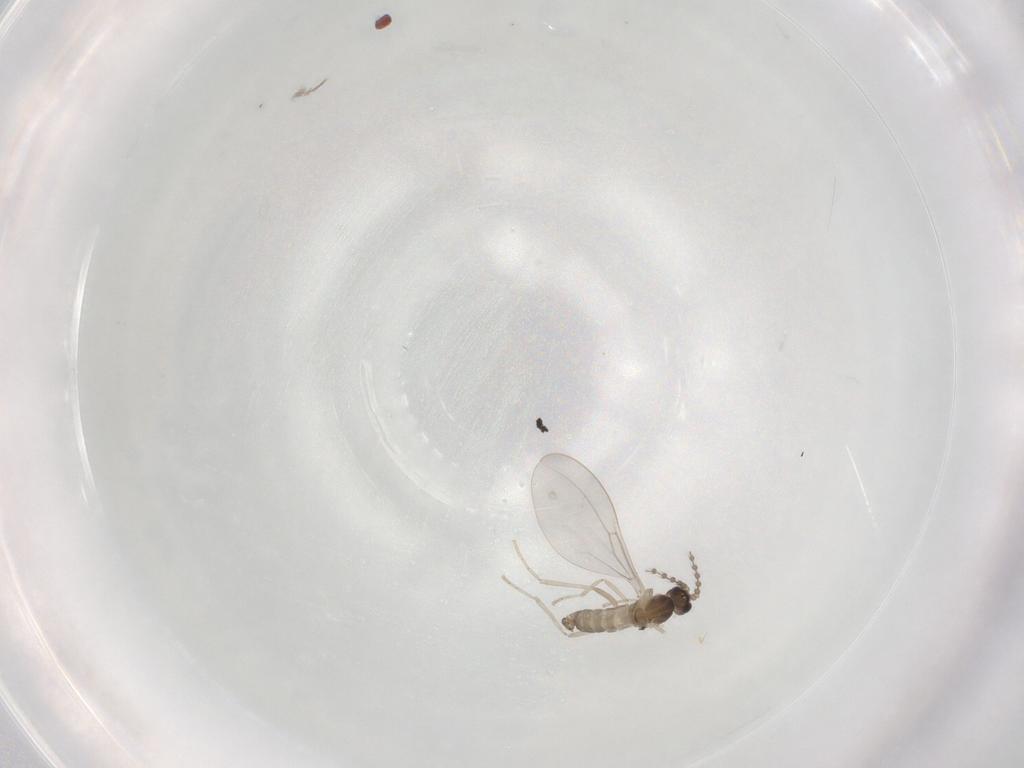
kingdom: Animalia
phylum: Arthropoda
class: Insecta
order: Diptera
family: Cecidomyiidae
